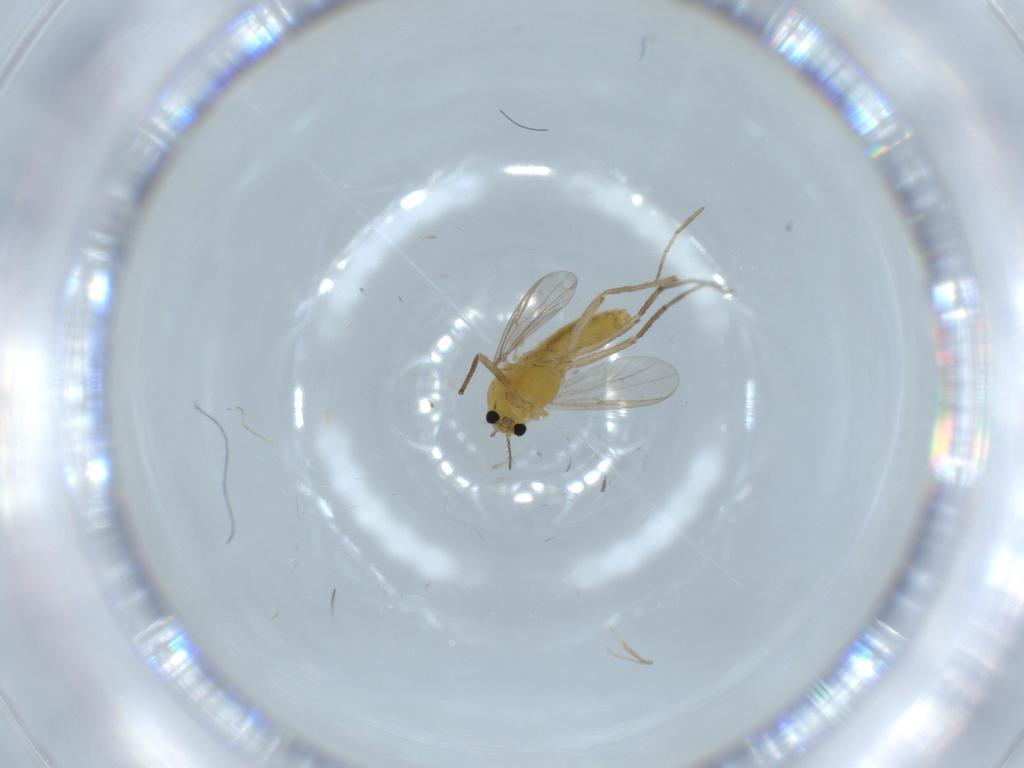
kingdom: Animalia
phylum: Arthropoda
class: Insecta
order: Diptera
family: Chironomidae
